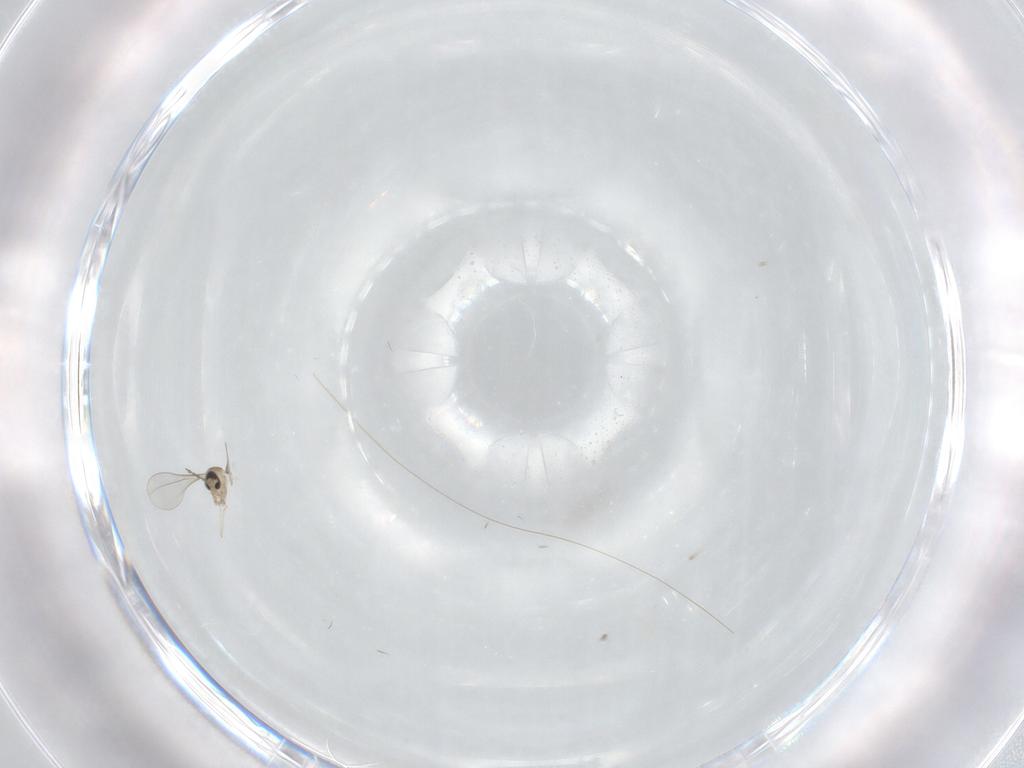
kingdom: Animalia
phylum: Arthropoda
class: Insecta
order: Diptera
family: Cecidomyiidae
